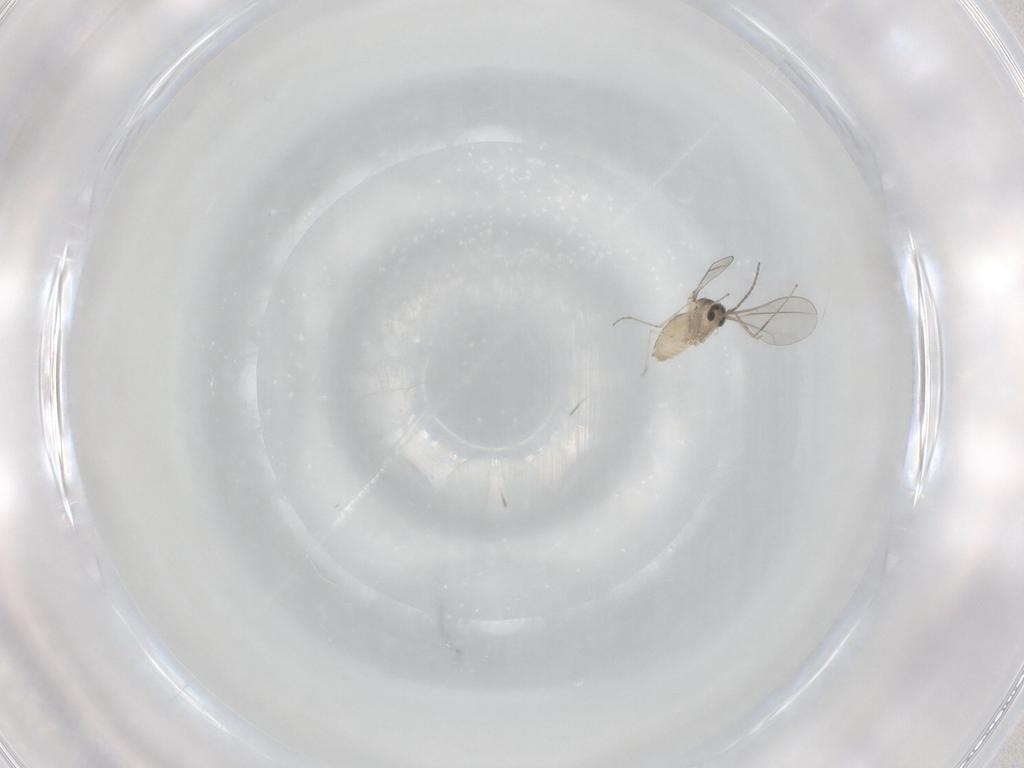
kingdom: Animalia
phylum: Arthropoda
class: Insecta
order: Diptera
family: Cecidomyiidae
